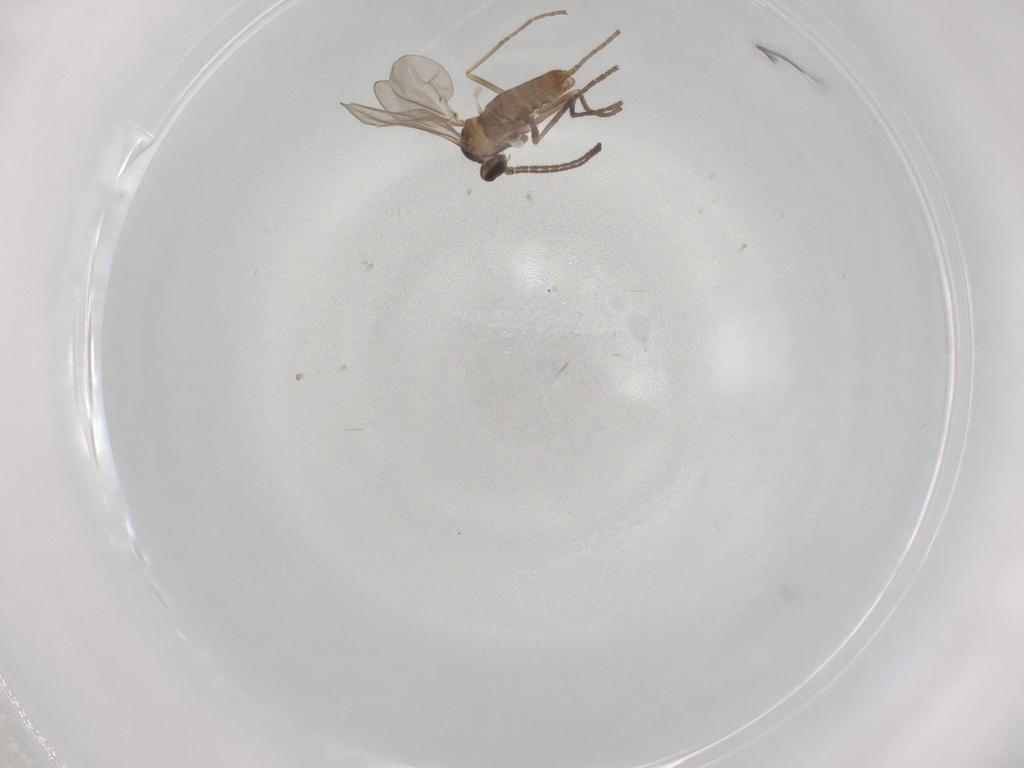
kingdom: Animalia
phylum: Arthropoda
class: Insecta
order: Diptera
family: Cecidomyiidae
